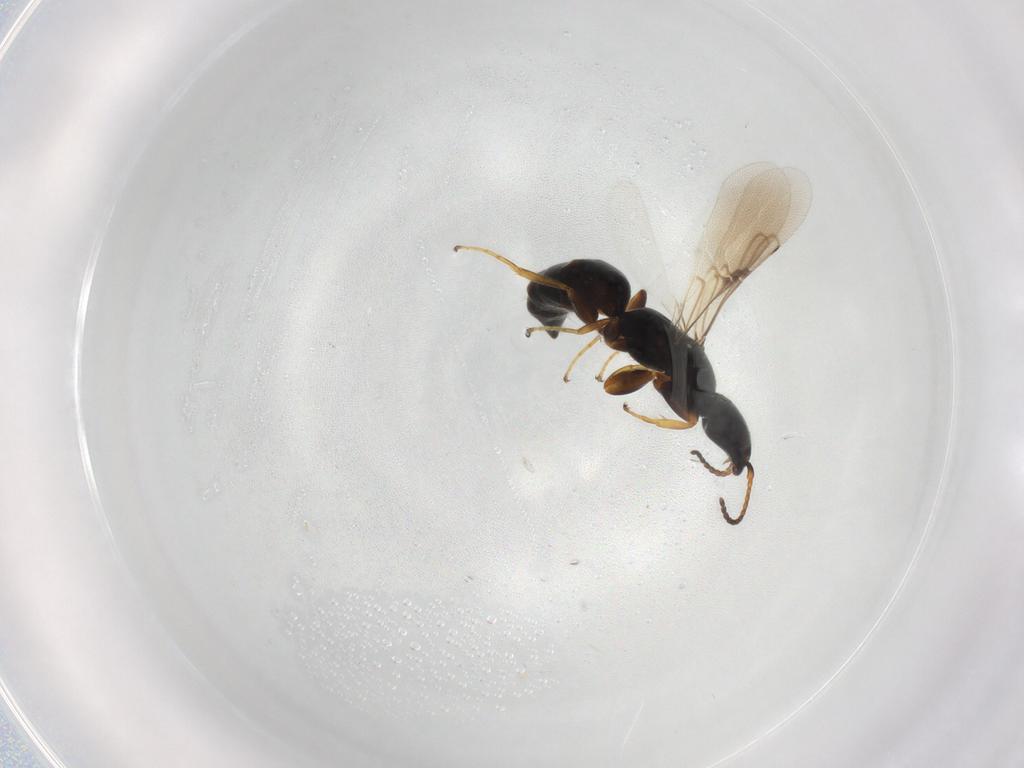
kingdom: Animalia
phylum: Arthropoda
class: Insecta
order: Hymenoptera
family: Bethylidae
